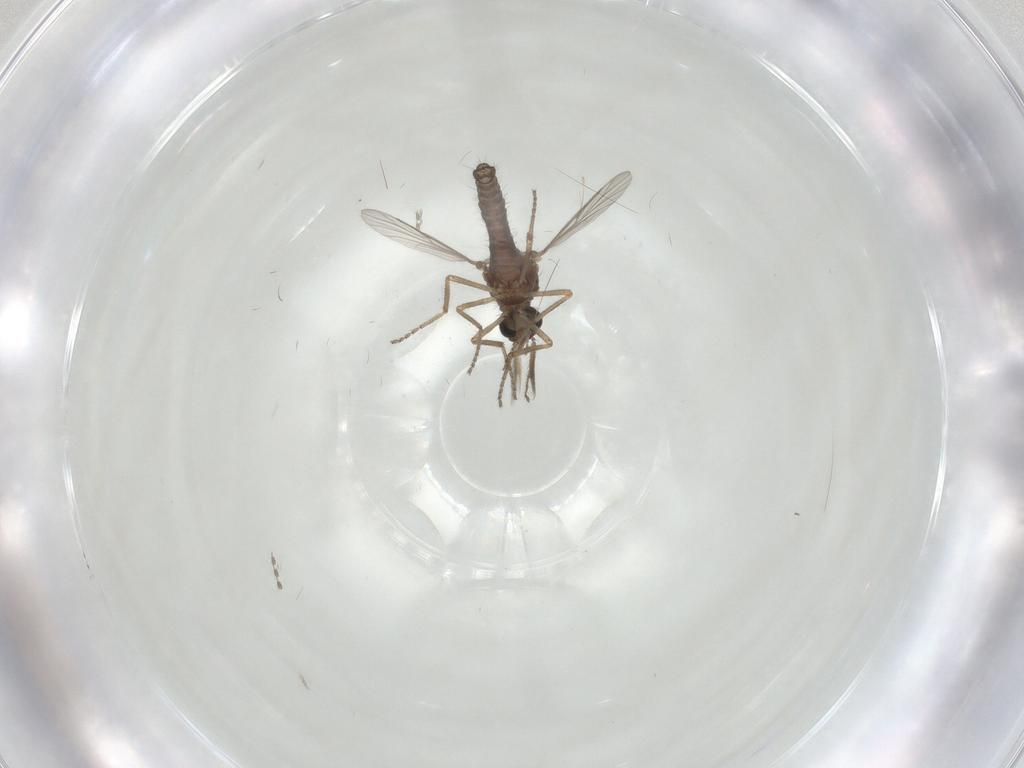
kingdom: Animalia
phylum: Arthropoda
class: Insecta
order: Diptera
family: Ceratopogonidae
